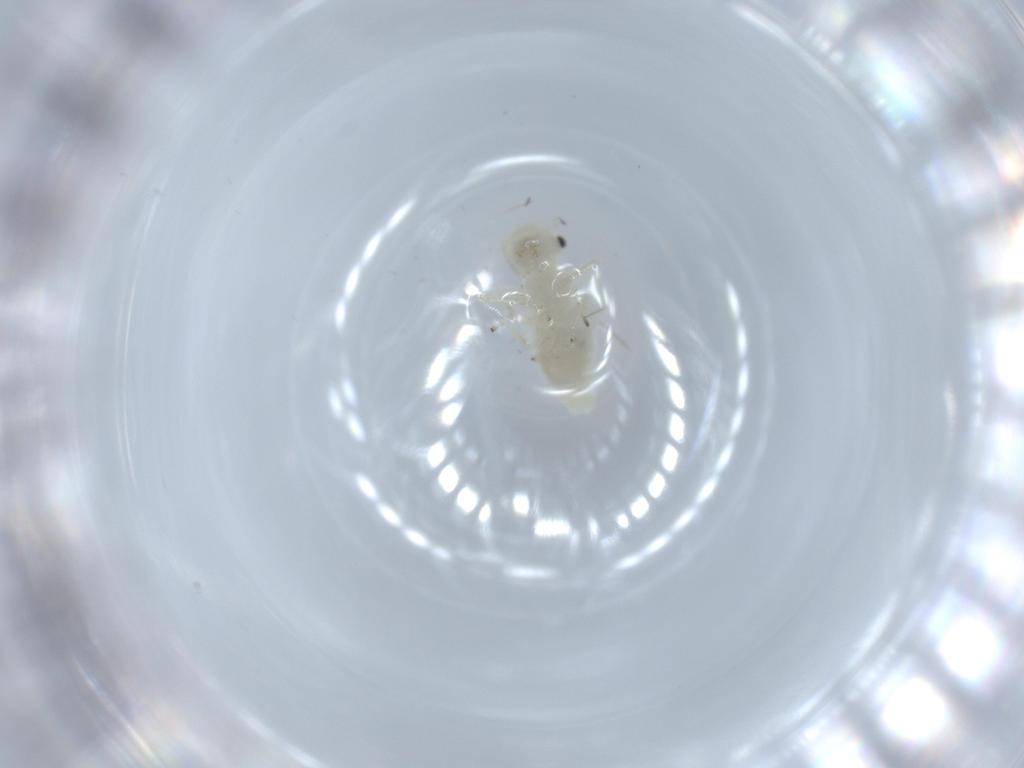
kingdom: Animalia
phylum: Arthropoda
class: Insecta
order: Psocodea
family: Caeciliusidae
